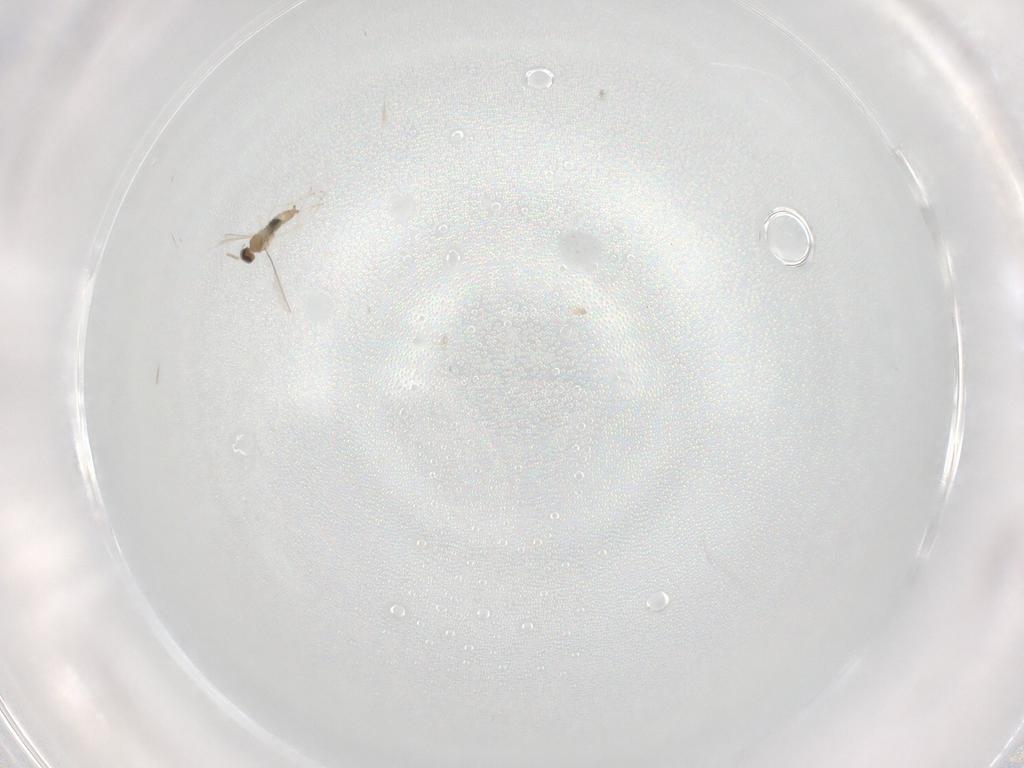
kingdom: Animalia
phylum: Arthropoda
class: Insecta
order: Diptera
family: Tachinidae
